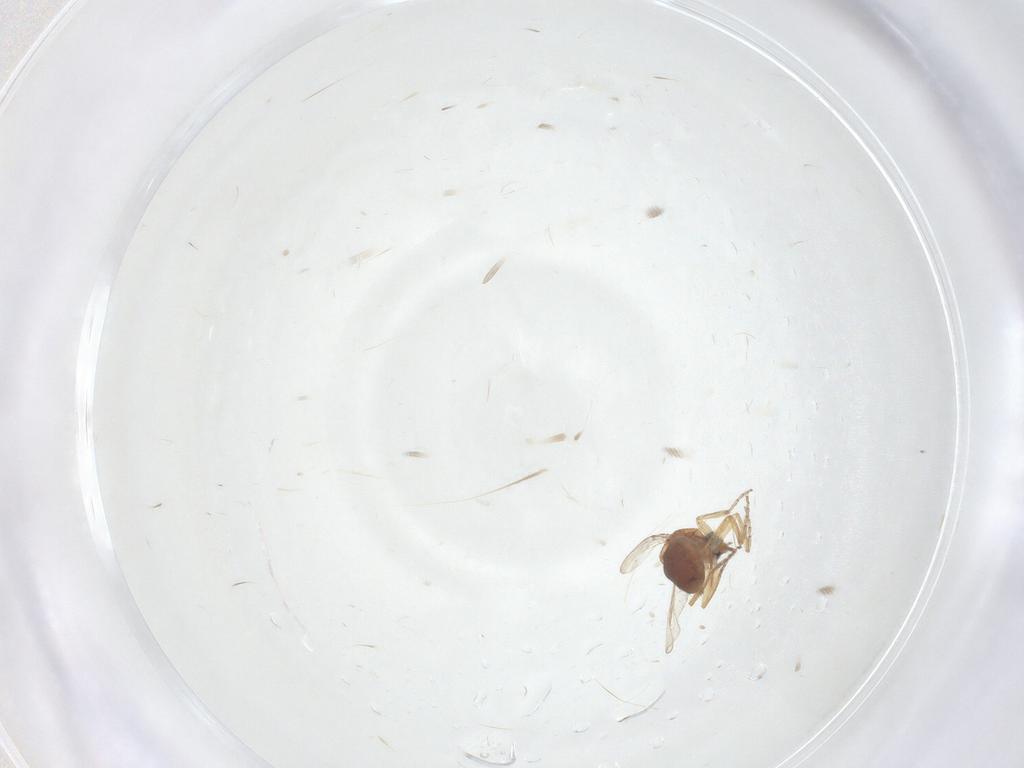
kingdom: Animalia
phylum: Arthropoda
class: Insecta
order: Diptera
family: Ceratopogonidae
